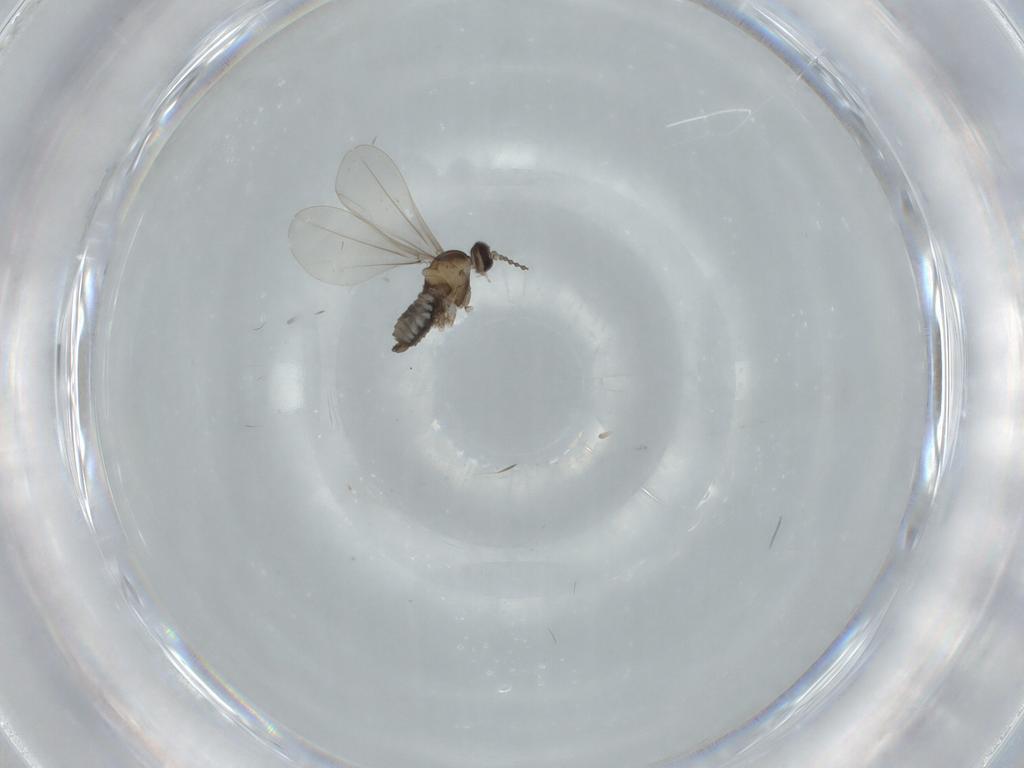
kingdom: Animalia
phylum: Arthropoda
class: Insecta
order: Diptera
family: Cecidomyiidae
